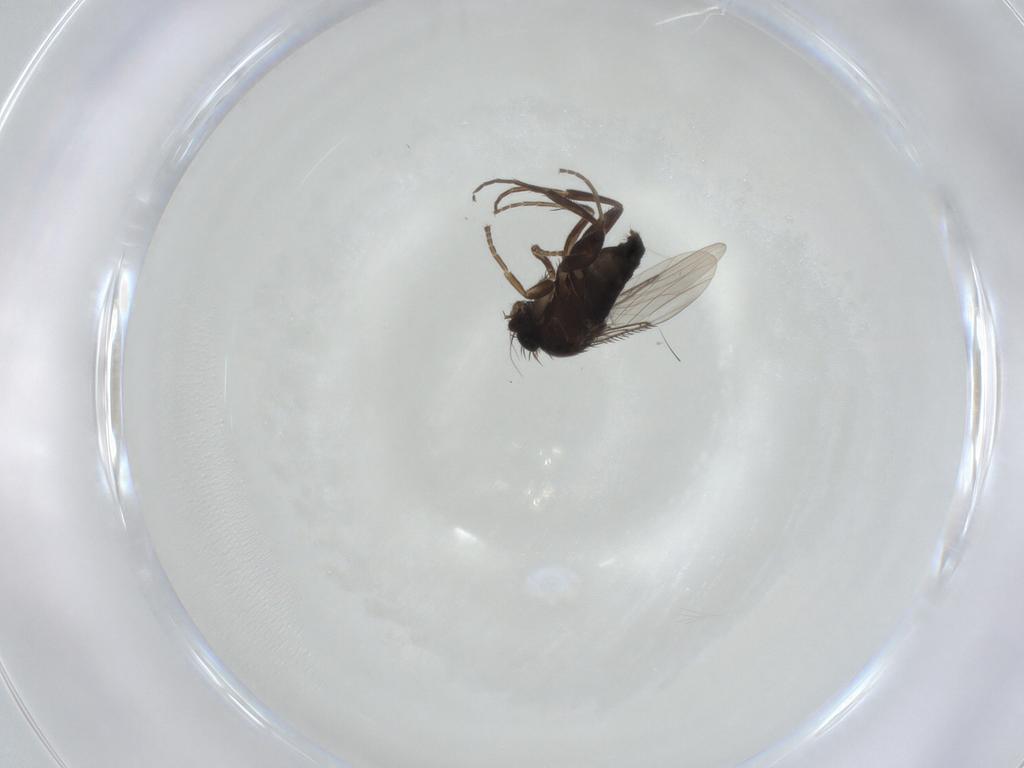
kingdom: Animalia
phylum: Arthropoda
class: Insecta
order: Diptera
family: Phoridae
